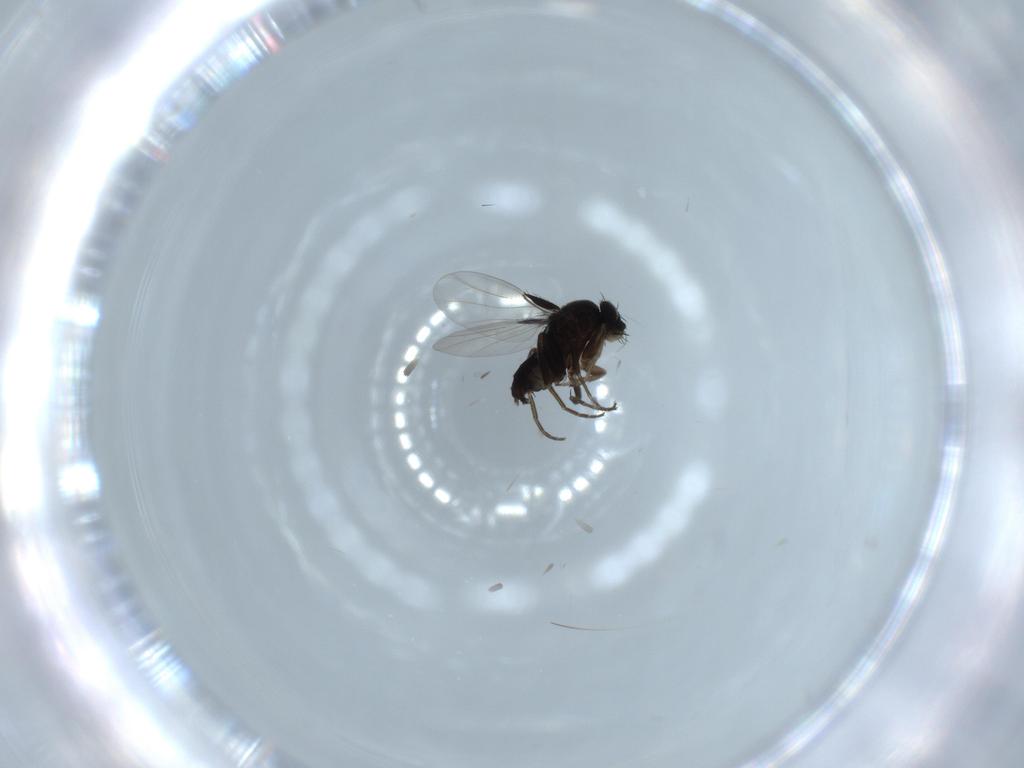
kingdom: Animalia
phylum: Arthropoda
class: Insecta
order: Diptera
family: Phoridae
